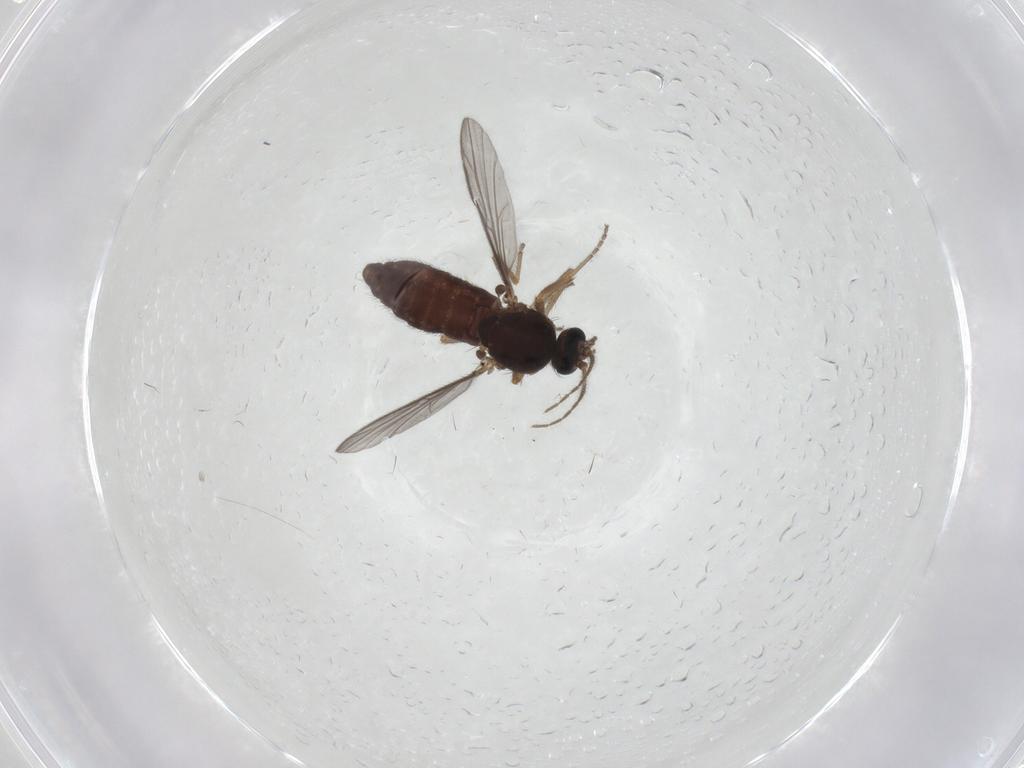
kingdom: Animalia
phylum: Arthropoda
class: Insecta
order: Diptera
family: Ceratopogonidae
